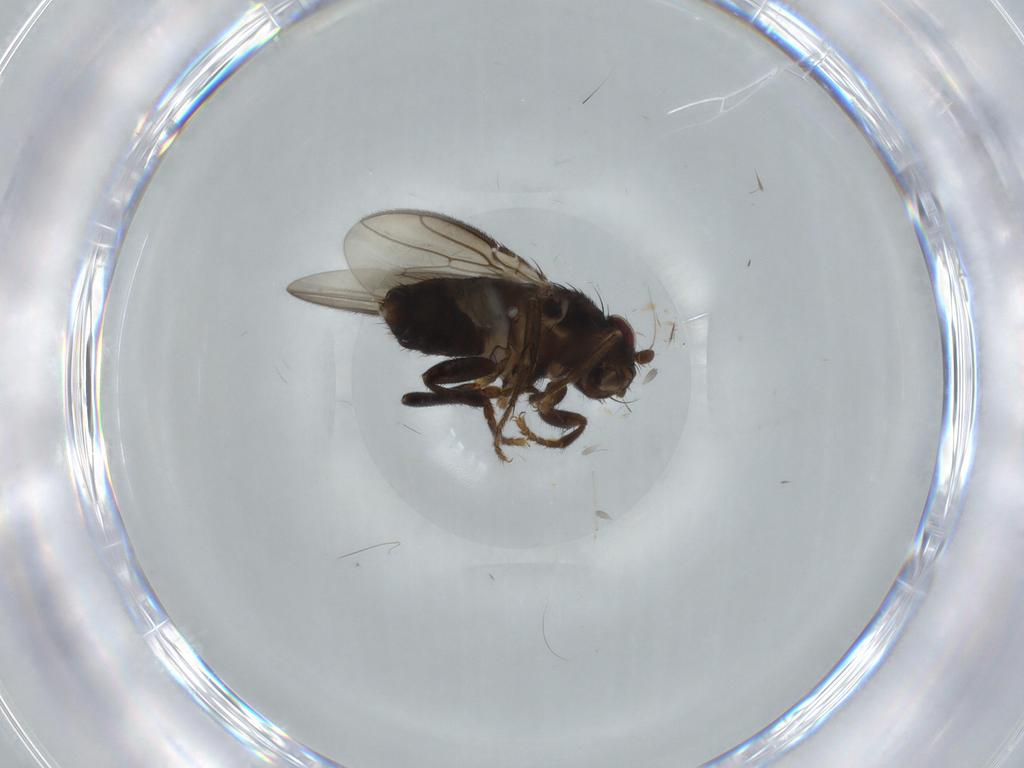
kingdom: Animalia
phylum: Arthropoda
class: Insecta
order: Diptera
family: Sphaeroceridae
